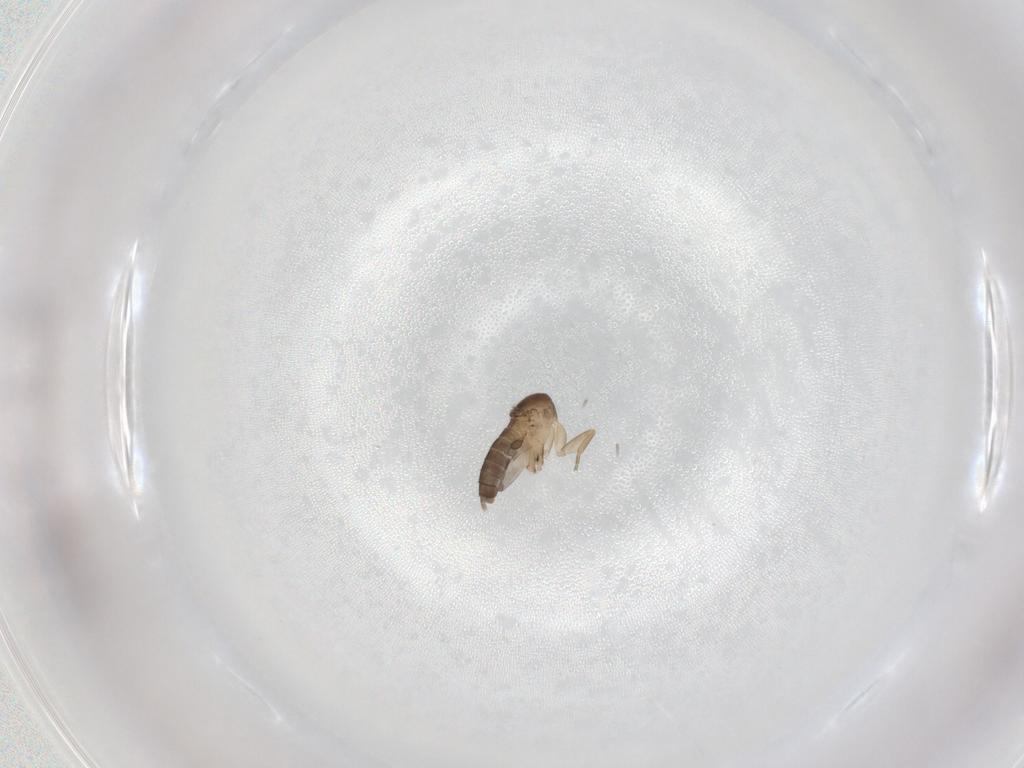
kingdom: Animalia
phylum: Arthropoda
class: Insecta
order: Diptera
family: Phoridae
